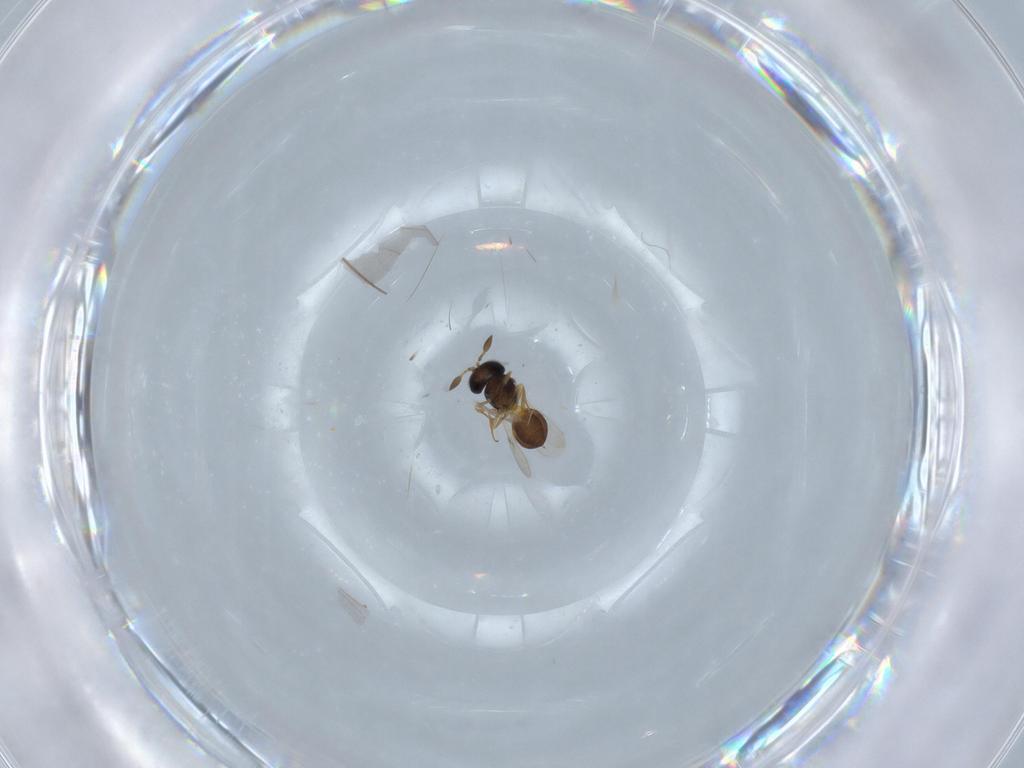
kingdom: Animalia
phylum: Arthropoda
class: Insecta
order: Hymenoptera
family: Scelionidae
